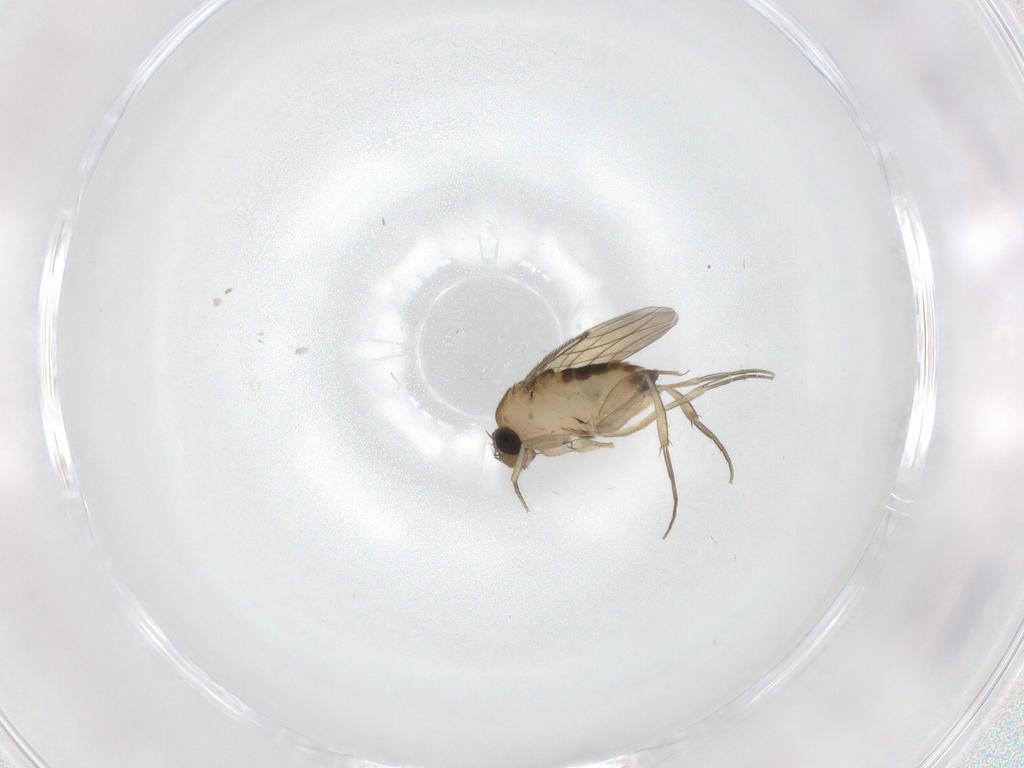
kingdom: Animalia
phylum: Arthropoda
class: Insecta
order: Diptera
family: Phoridae
